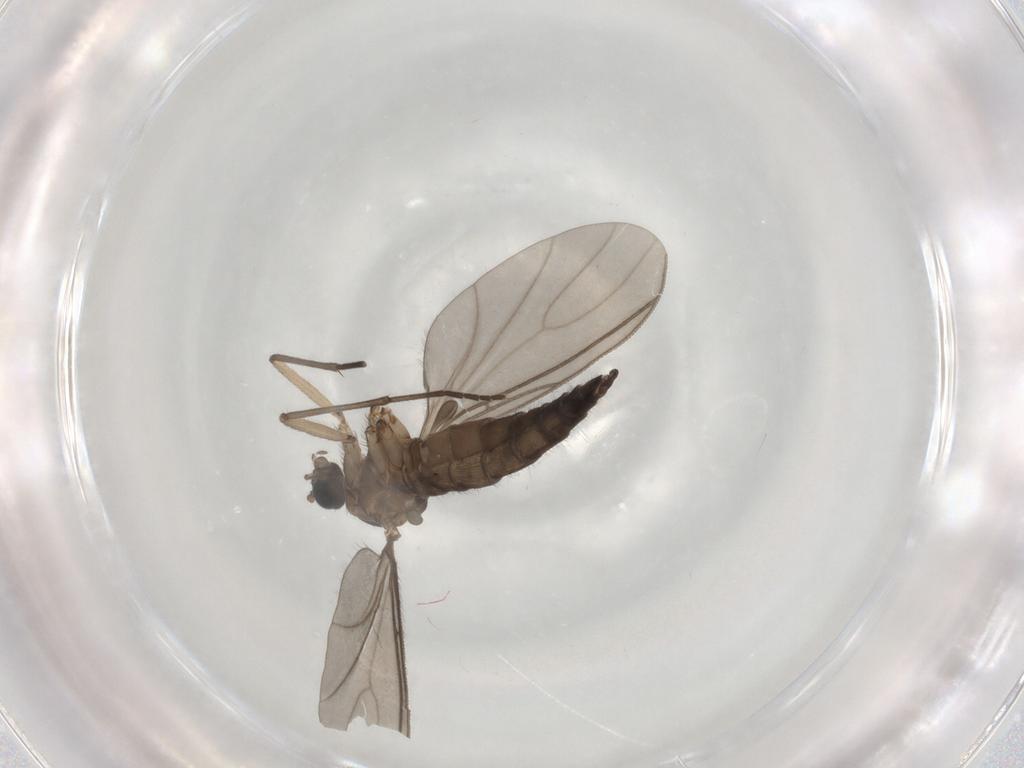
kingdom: Animalia
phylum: Arthropoda
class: Insecta
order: Diptera
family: Sciaridae
